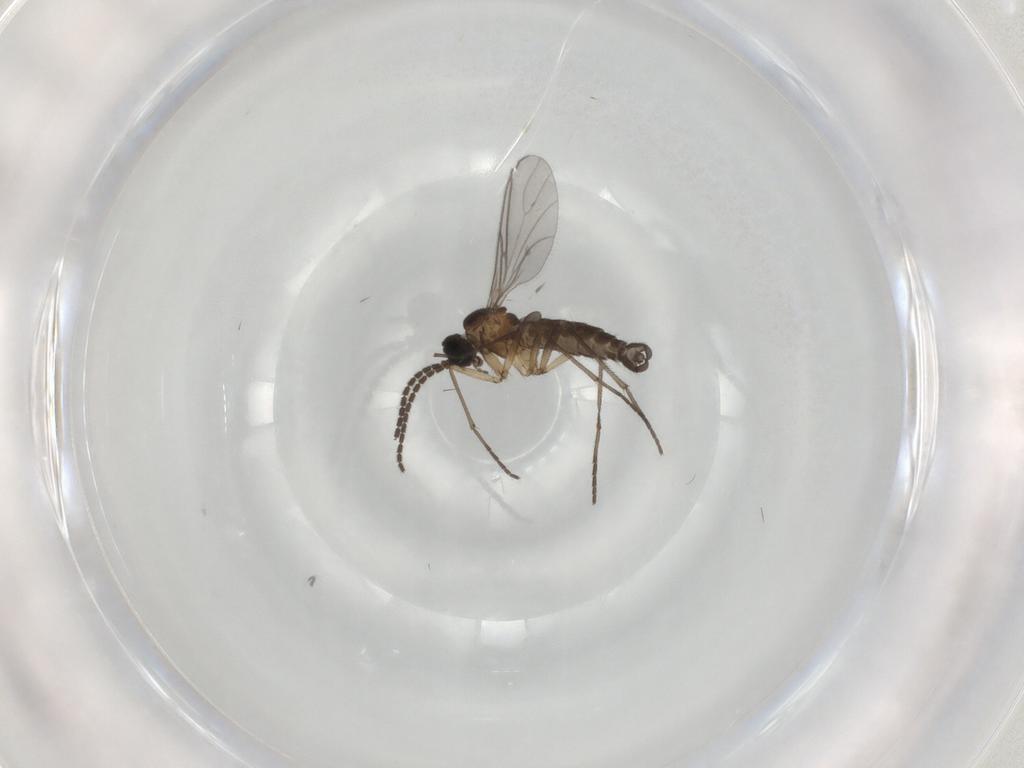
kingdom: Animalia
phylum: Arthropoda
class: Insecta
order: Diptera
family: Sciaridae
